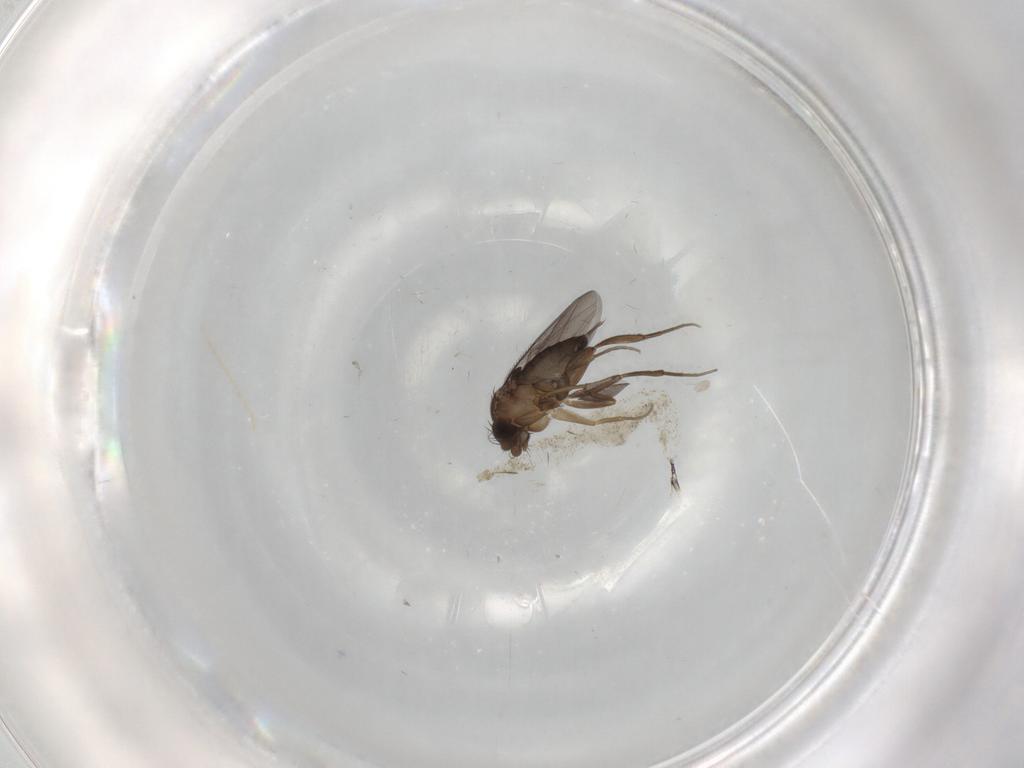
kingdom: Animalia
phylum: Arthropoda
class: Insecta
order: Diptera
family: Phoridae
